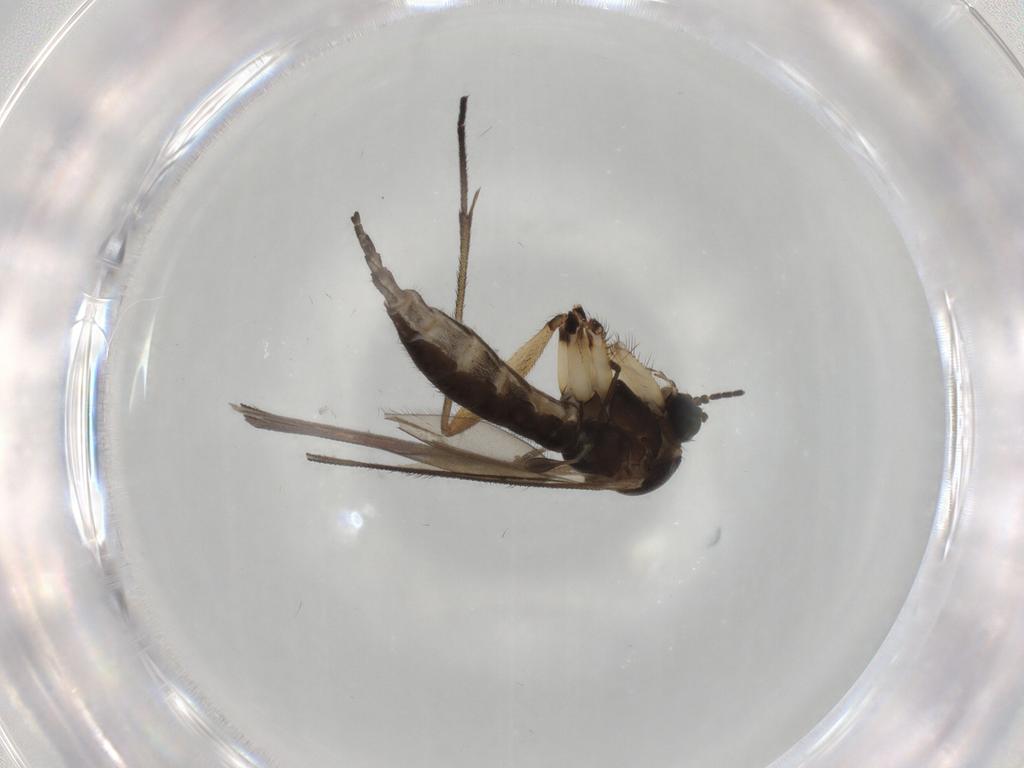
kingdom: Animalia
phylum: Arthropoda
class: Insecta
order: Diptera
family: Sciaridae
